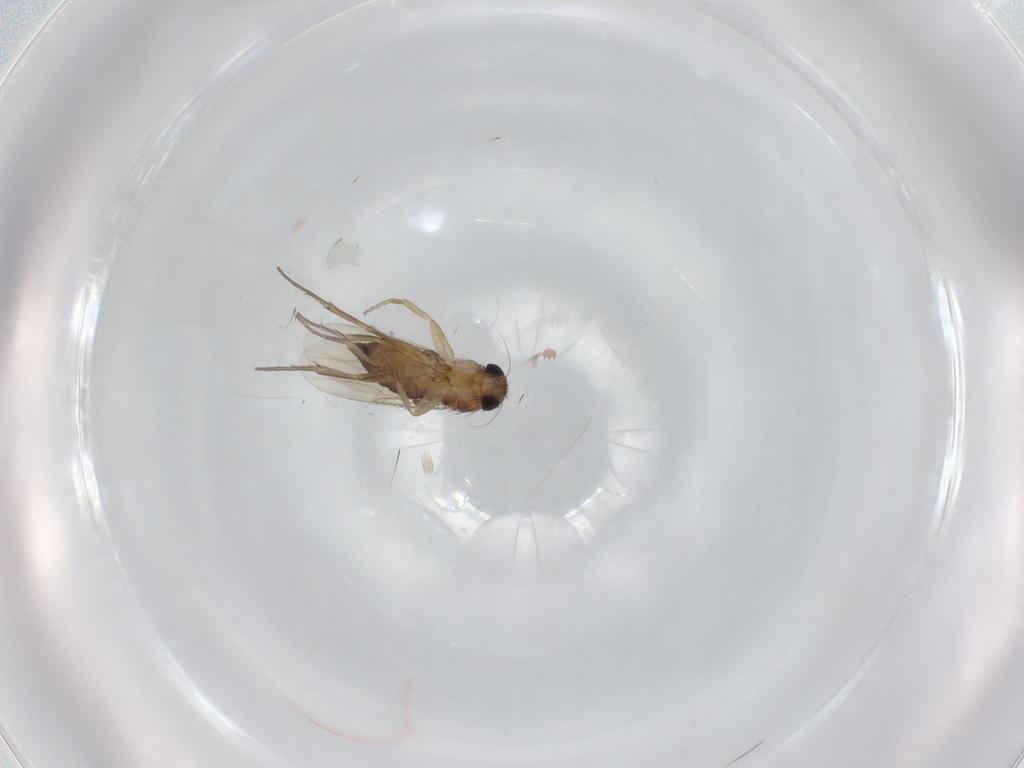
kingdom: Animalia
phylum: Arthropoda
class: Insecta
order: Diptera
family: Phoridae
